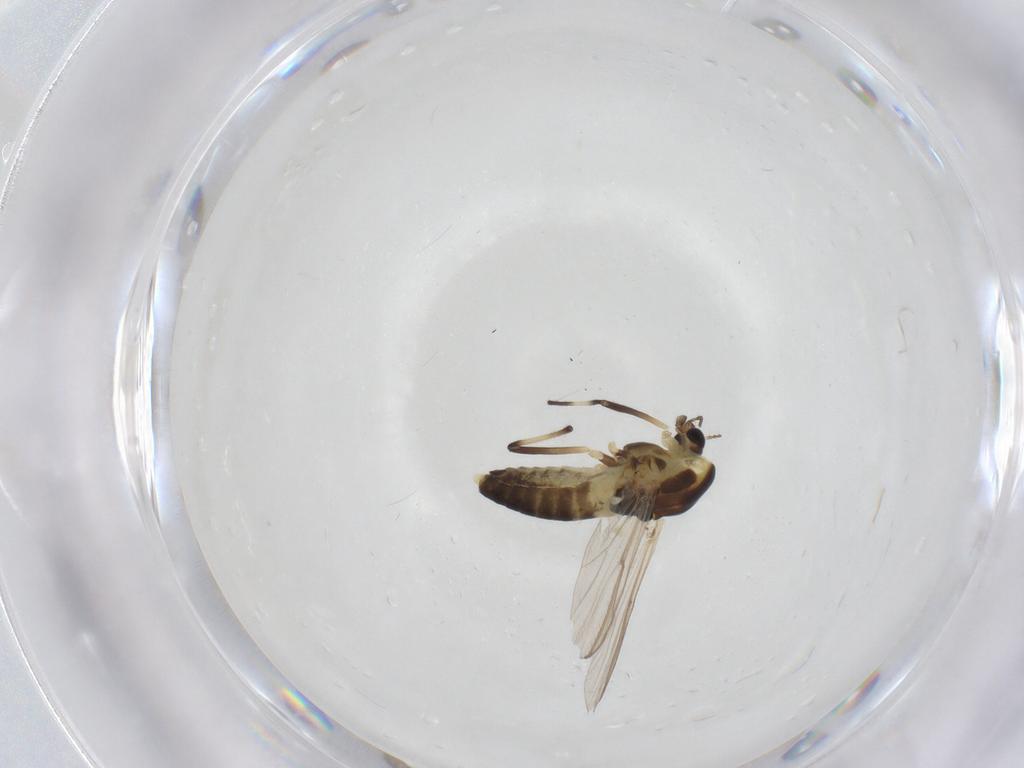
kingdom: Animalia
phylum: Arthropoda
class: Insecta
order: Diptera
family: Chironomidae
